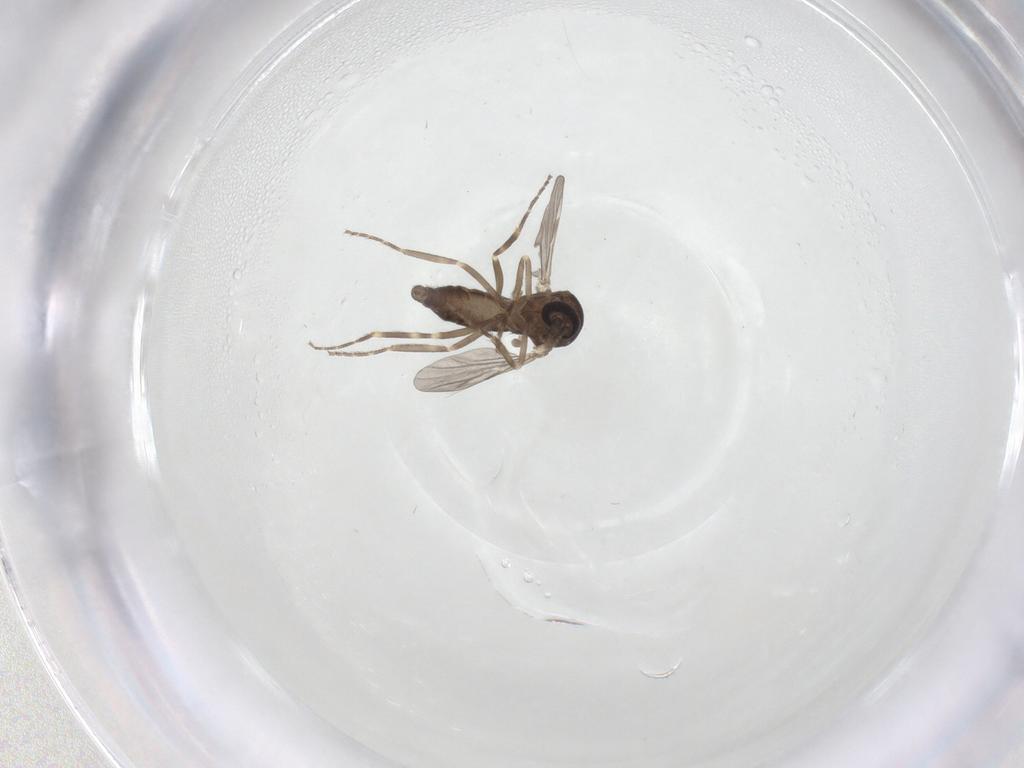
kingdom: Animalia
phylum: Arthropoda
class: Insecta
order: Diptera
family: Ceratopogonidae
